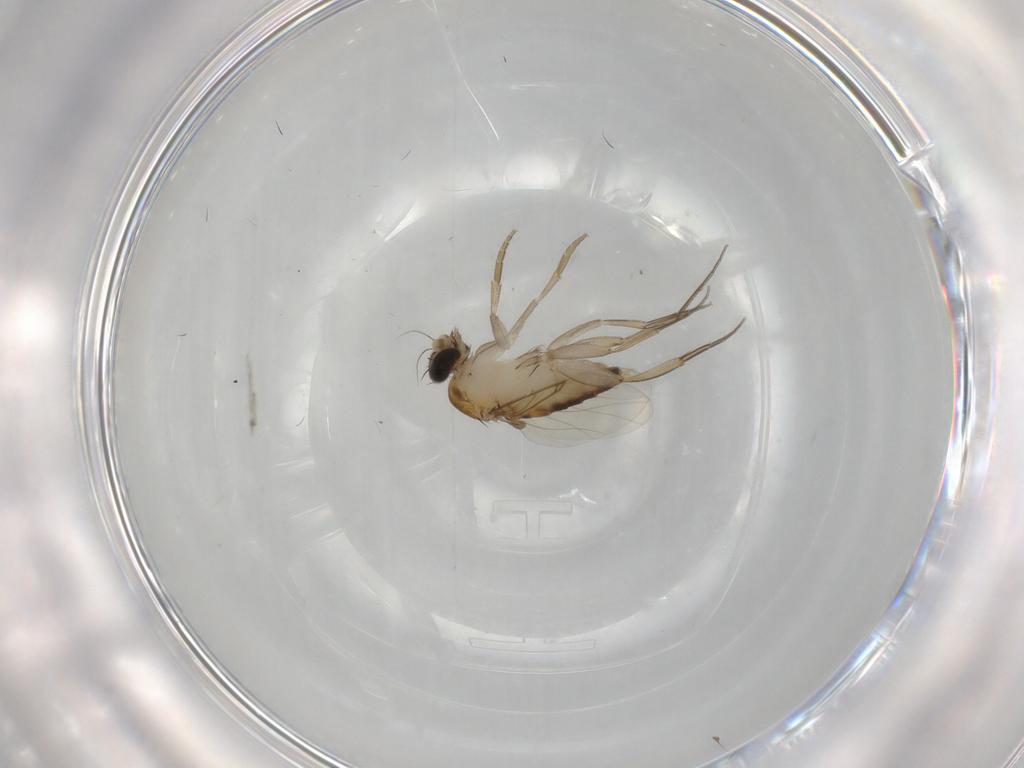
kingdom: Animalia
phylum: Arthropoda
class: Insecta
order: Diptera
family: Phoridae
